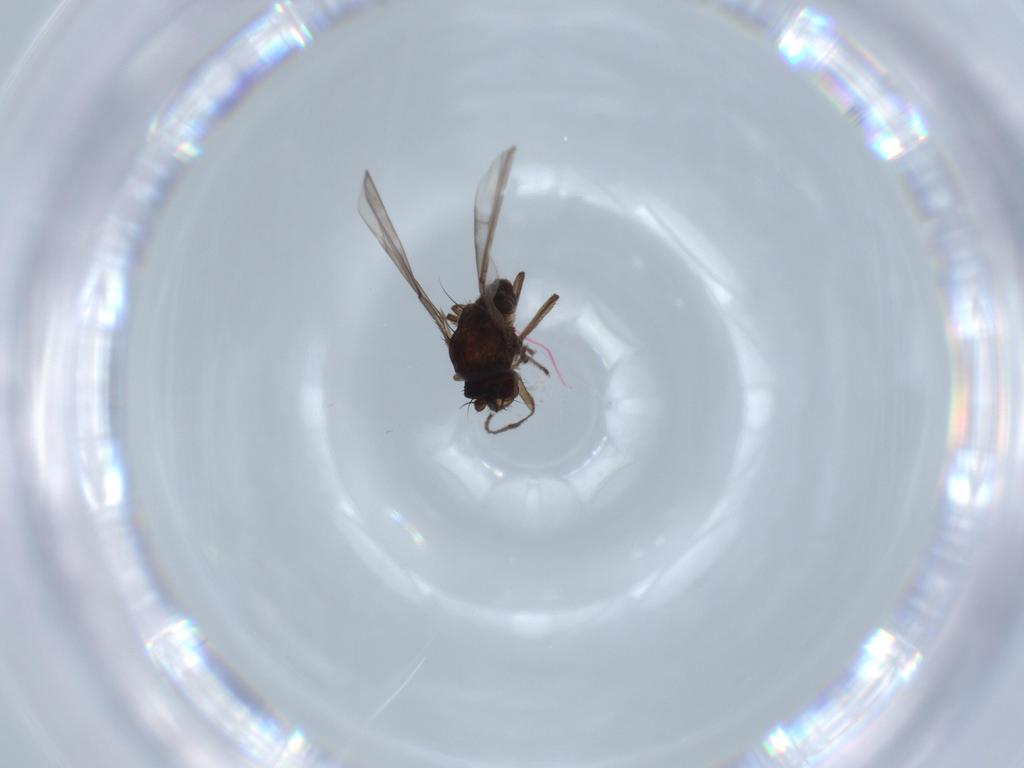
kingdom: Animalia
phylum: Arthropoda
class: Insecta
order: Diptera
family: Ephydridae
